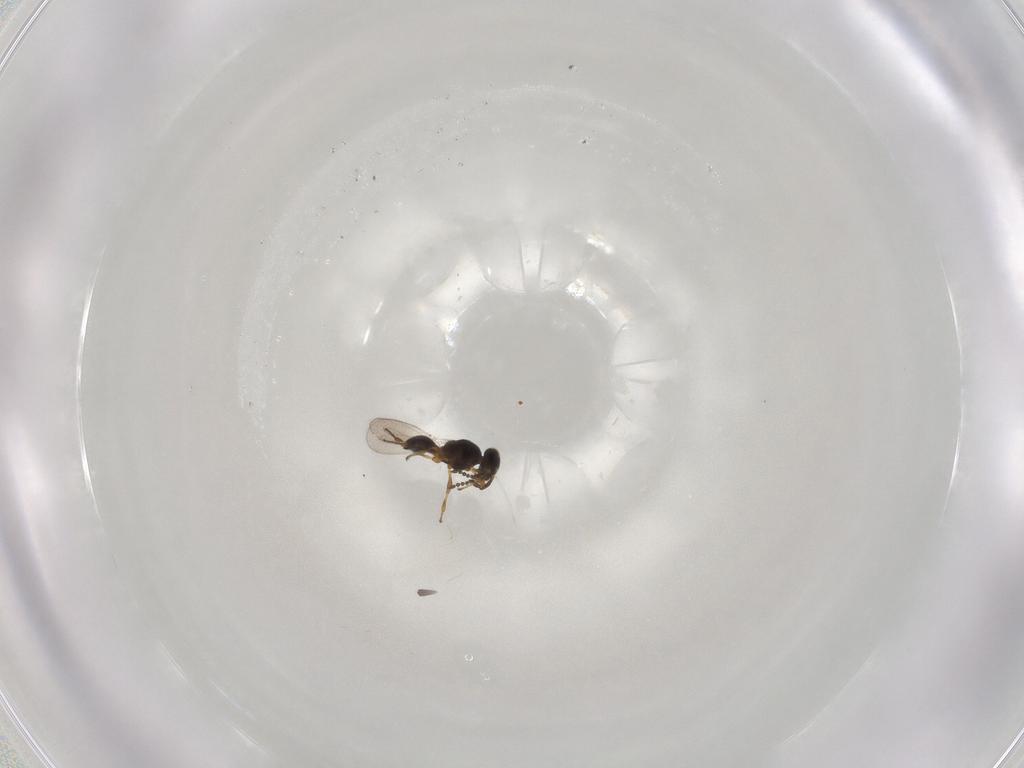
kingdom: Animalia
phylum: Arthropoda
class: Insecta
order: Hymenoptera
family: Platygastridae
